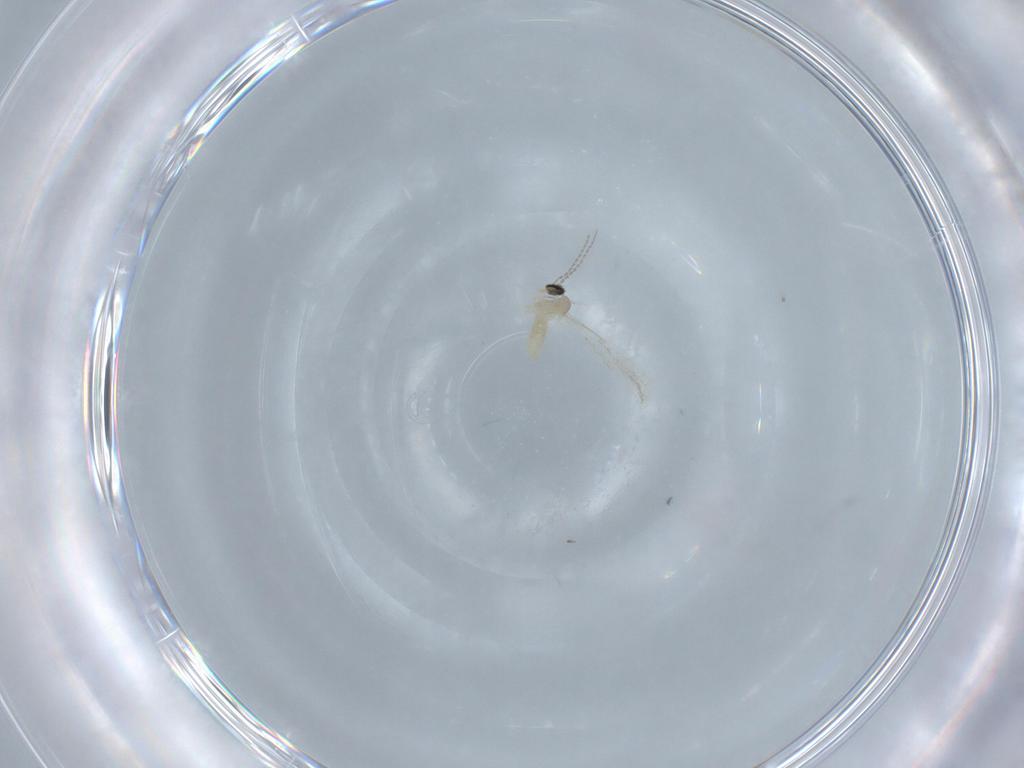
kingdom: Animalia
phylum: Arthropoda
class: Insecta
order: Diptera
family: Cecidomyiidae
